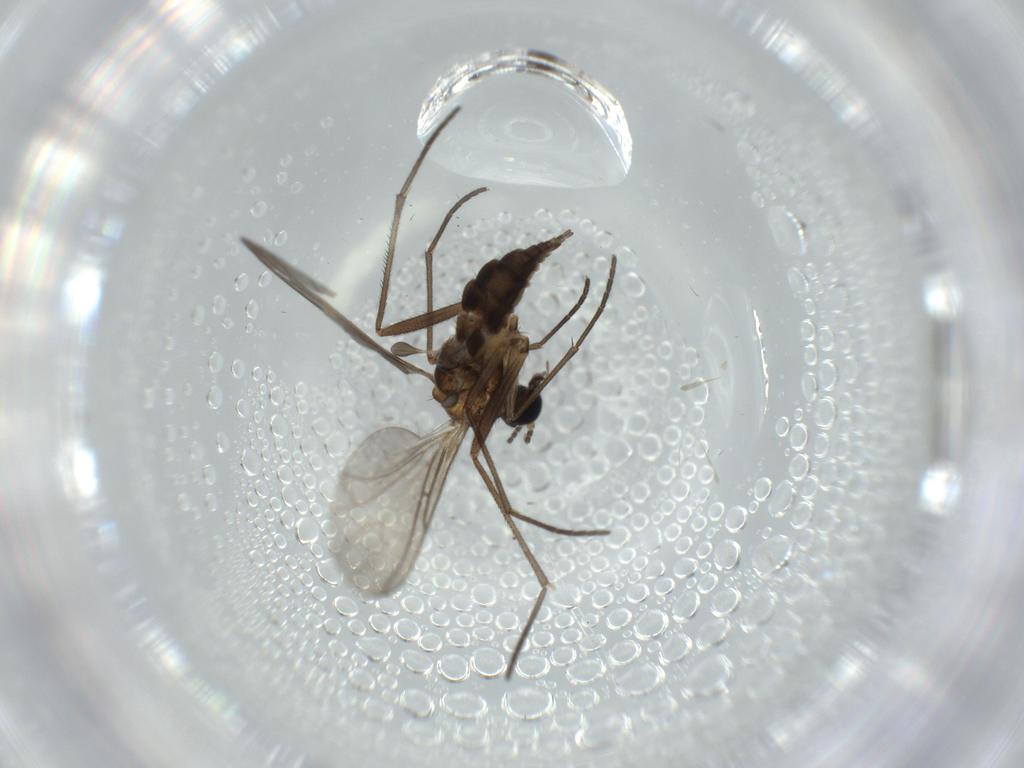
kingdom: Animalia
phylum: Arthropoda
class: Insecta
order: Diptera
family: Sciaridae
